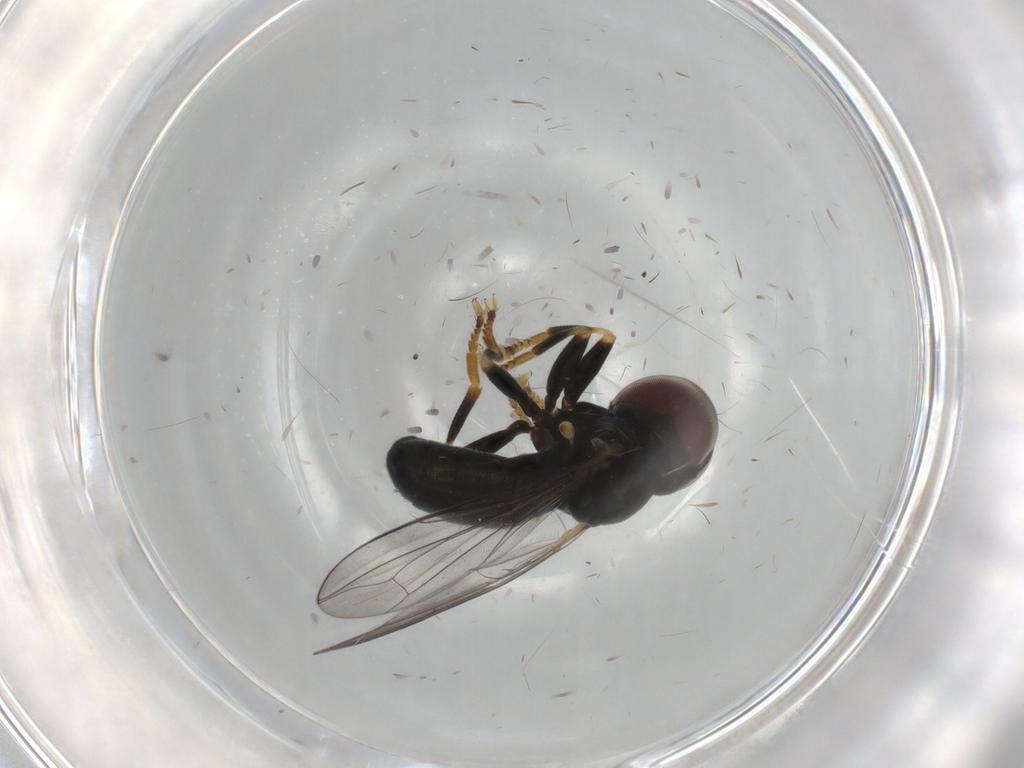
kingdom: Animalia
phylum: Arthropoda
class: Insecta
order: Diptera
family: Pipunculidae
